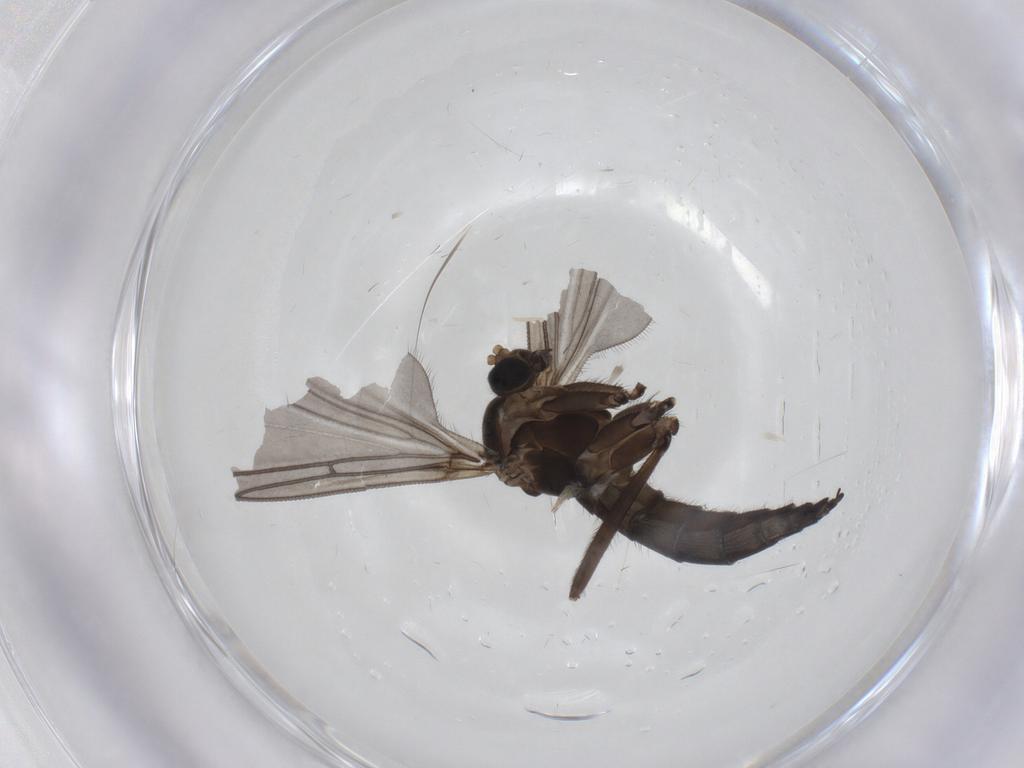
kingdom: Animalia
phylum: Arthropoda
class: Insecta
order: Diptera
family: Sciaridae
